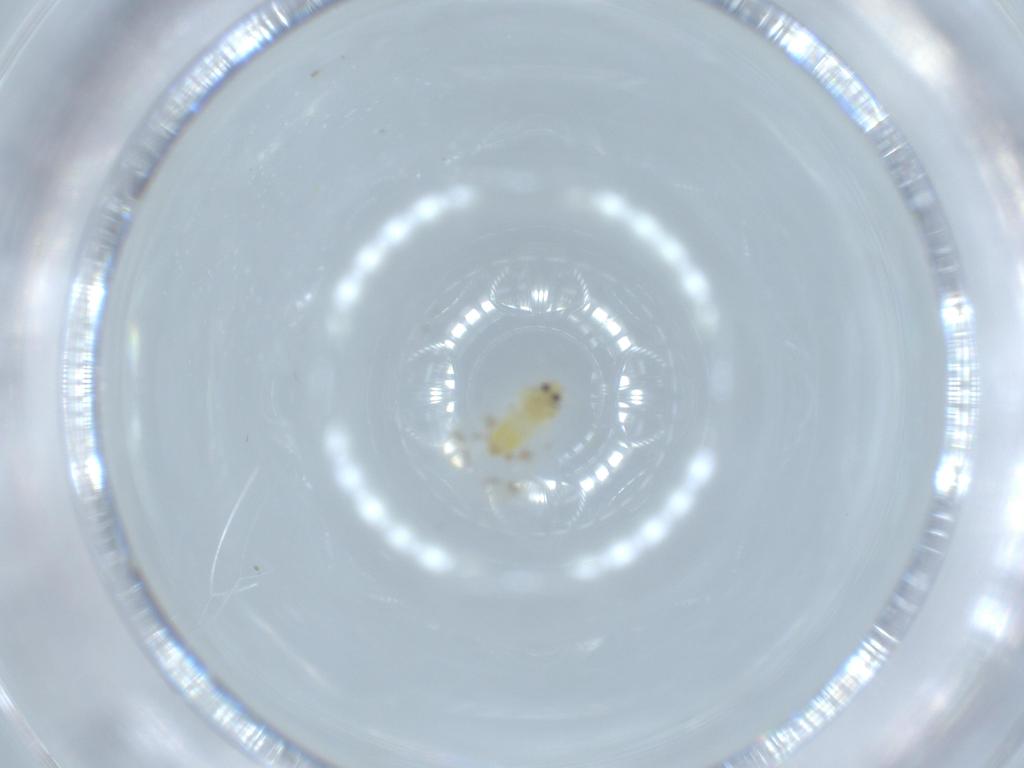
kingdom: Animalia
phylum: Arthropoda
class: Insecta
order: Hemiptera
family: Aleyrodidae
